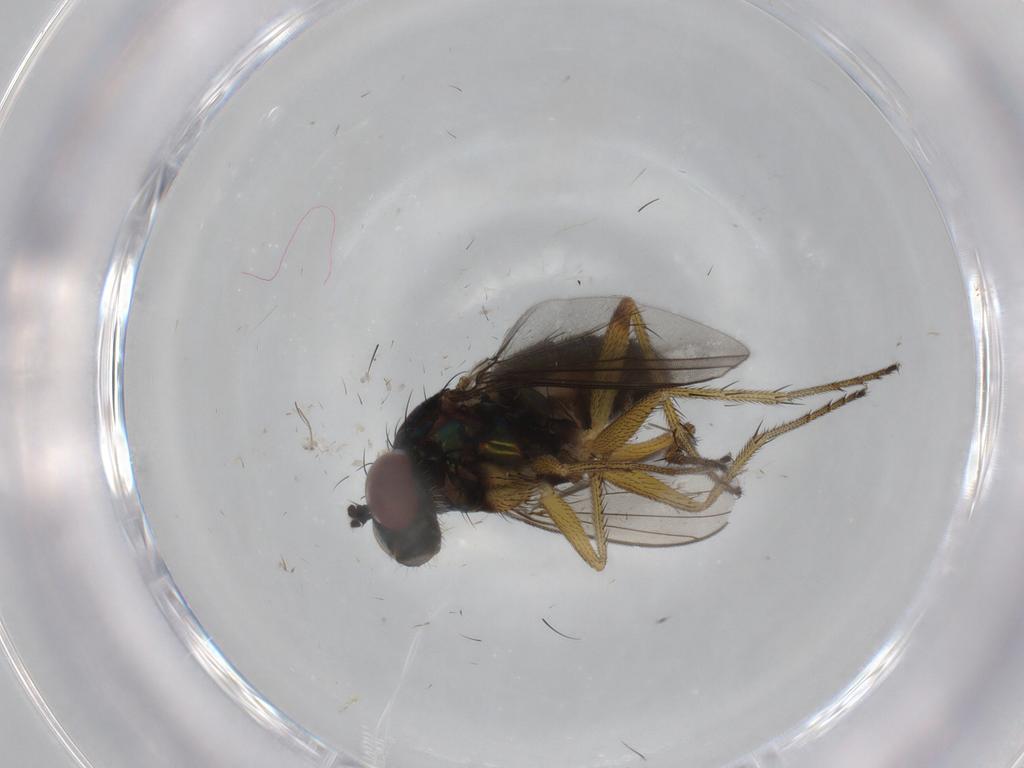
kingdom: Animalia
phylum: Arthropoda
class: Insecta
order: Diptera
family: Dolichopodidae
